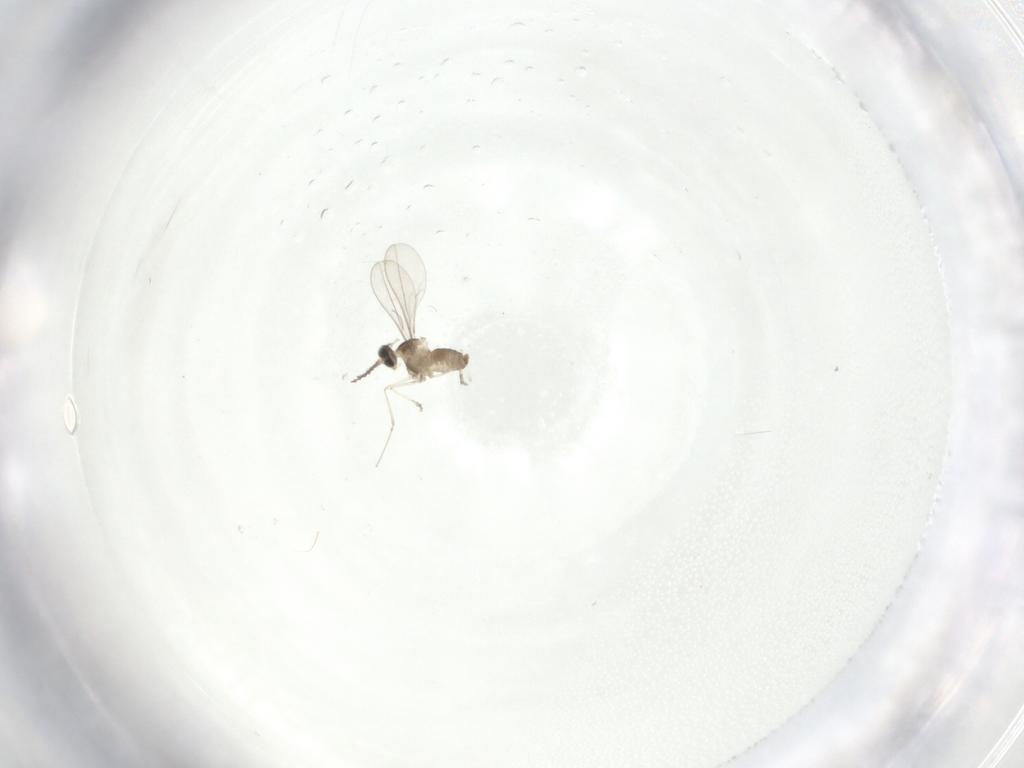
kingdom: Animalia
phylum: Arthropoda
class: Insecta
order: Diptera
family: Cecidomyiidae
